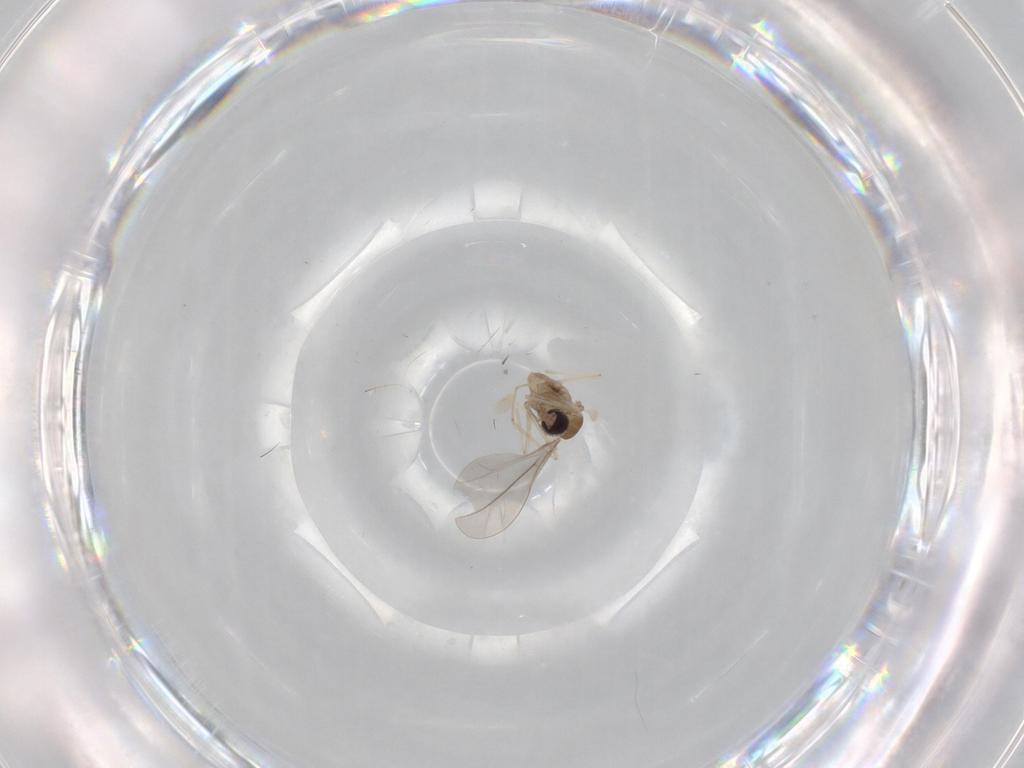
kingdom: Animalia
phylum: Arthropoda
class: Insecta
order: Diptera
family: Cecidomyiidae
